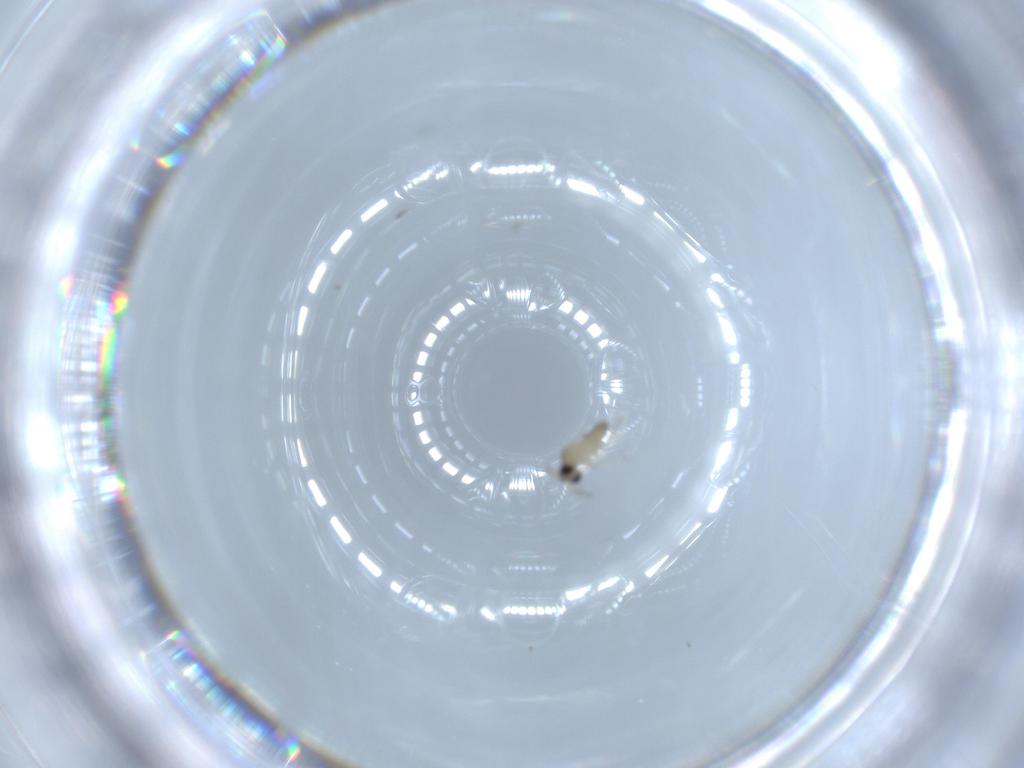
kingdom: Animalia
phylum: Arthropoda
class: Insecta
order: Diptera
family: Cecidomyiidae
